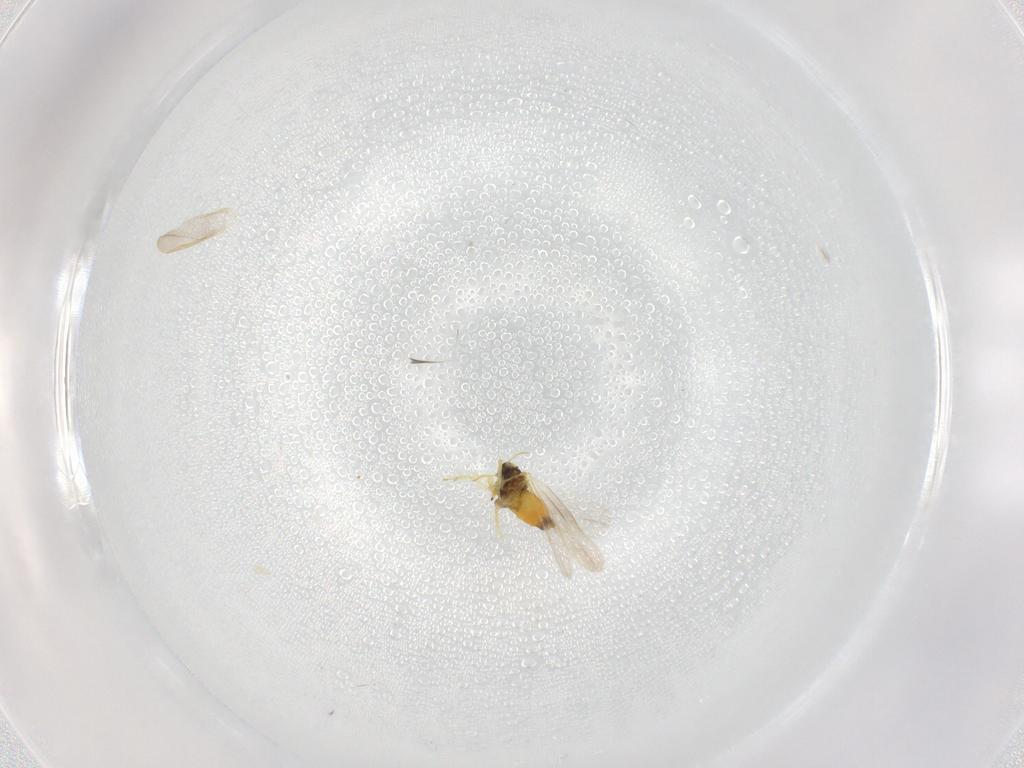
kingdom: Animalia
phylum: Arthropoda
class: Insecta
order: Hemiptera
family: Aleyrodidae
